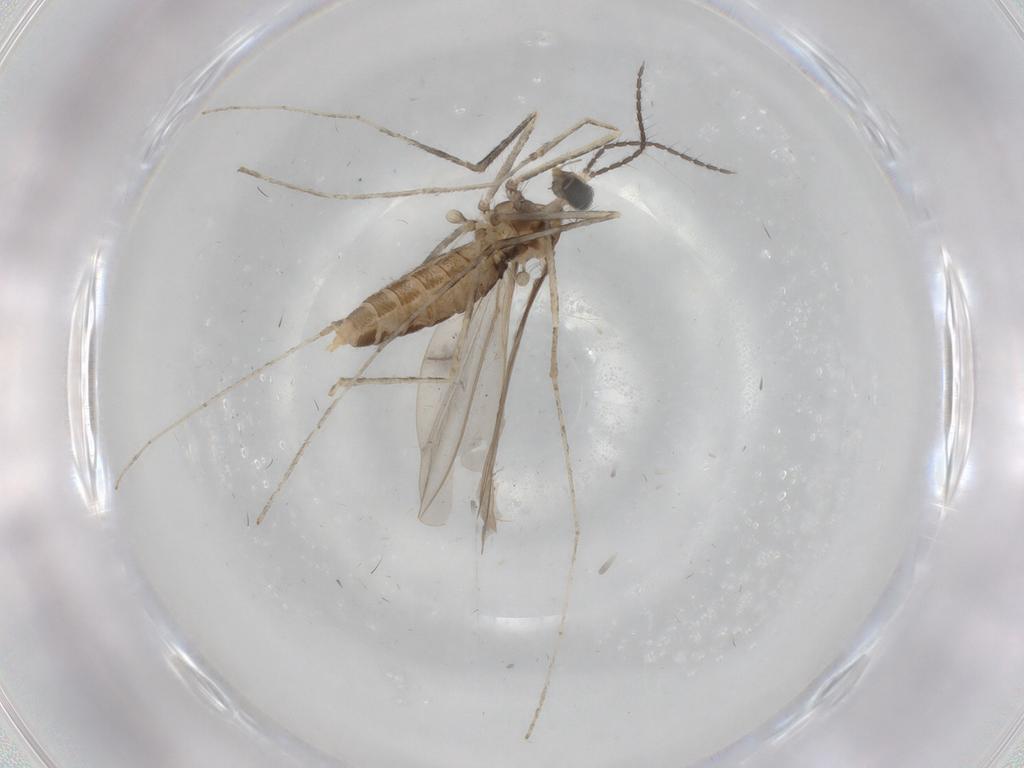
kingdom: Animalia
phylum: Arthropoda
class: Insecta
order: Diptera
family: Cecidomyiidae
